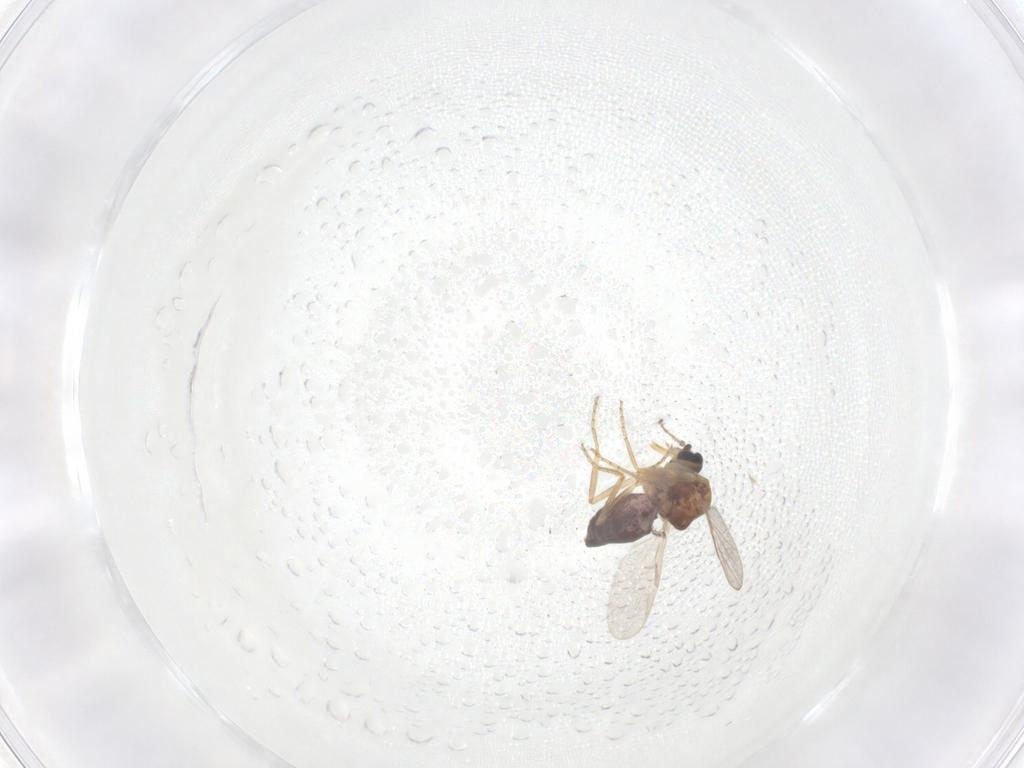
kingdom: Animalia
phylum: Arthropoda
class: Insecta
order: Diptera
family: Ceratopogonidae
